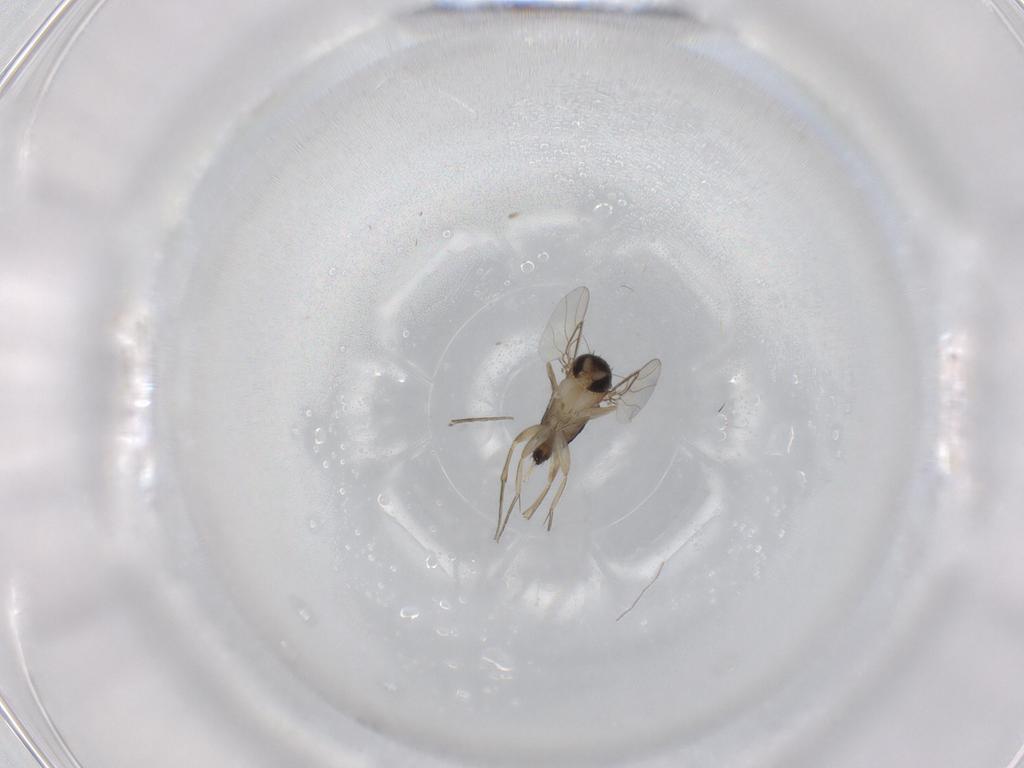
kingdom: Animalia
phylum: Arthropoda
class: Insecta
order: Diptera
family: Phoridae
